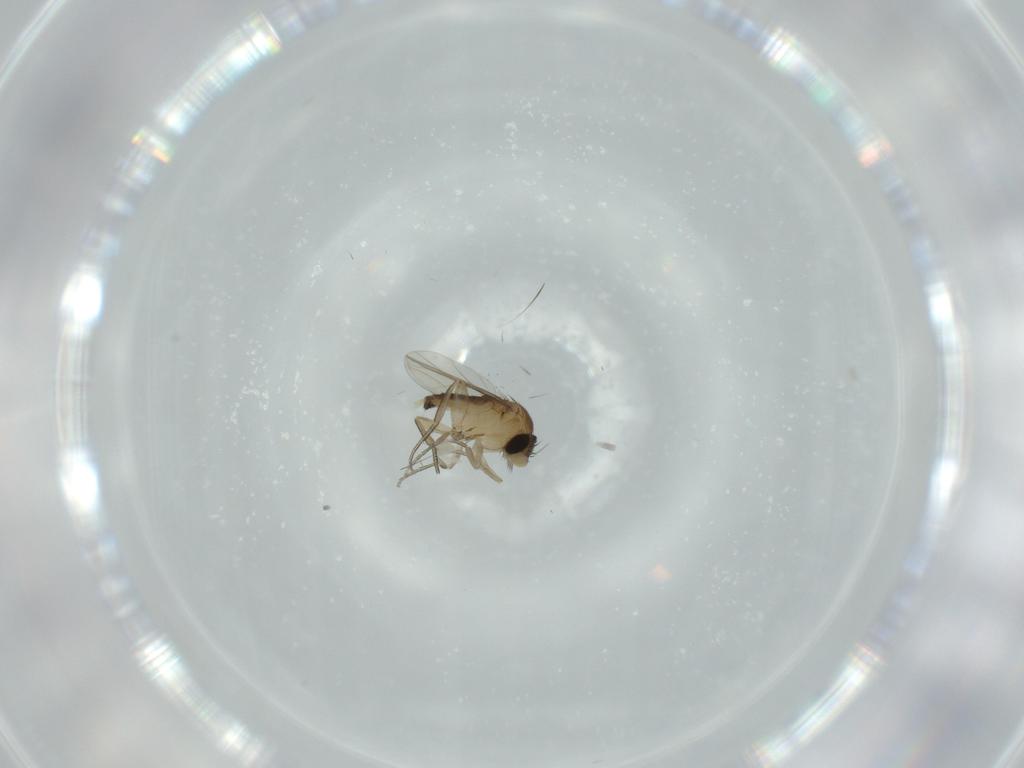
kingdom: Animalia
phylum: Arthropoda
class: Insecta
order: Diptera
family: Phoridae
